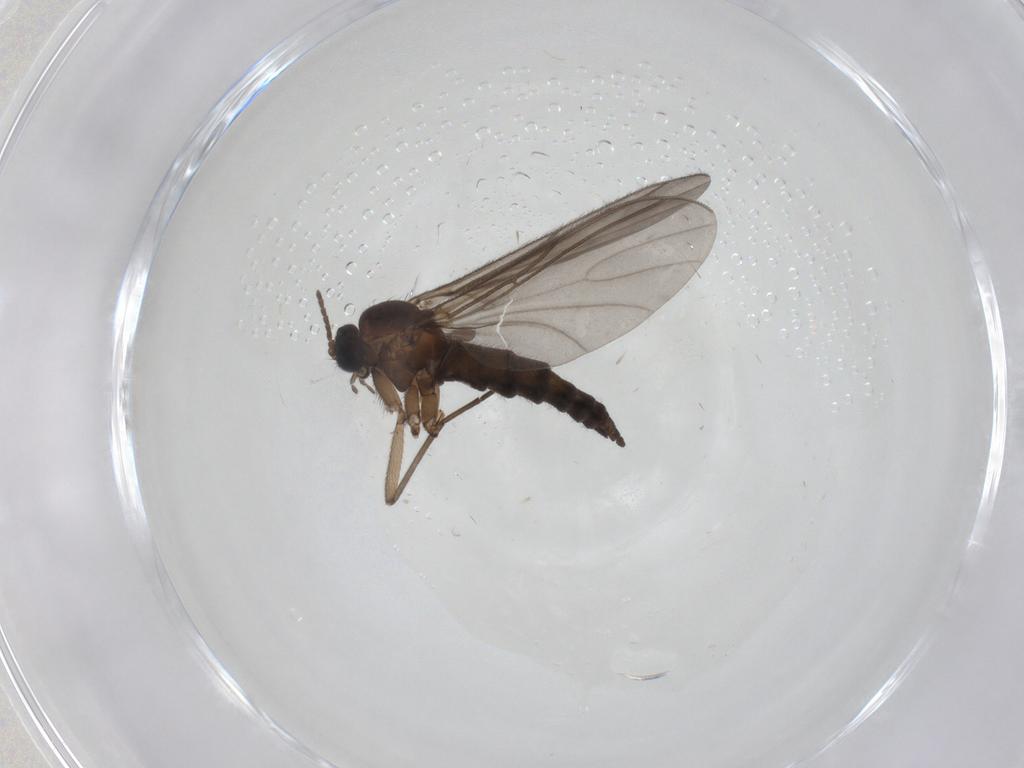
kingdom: Animalia
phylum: Arthropoda
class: Insecta
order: Diptera
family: Sciaridae
